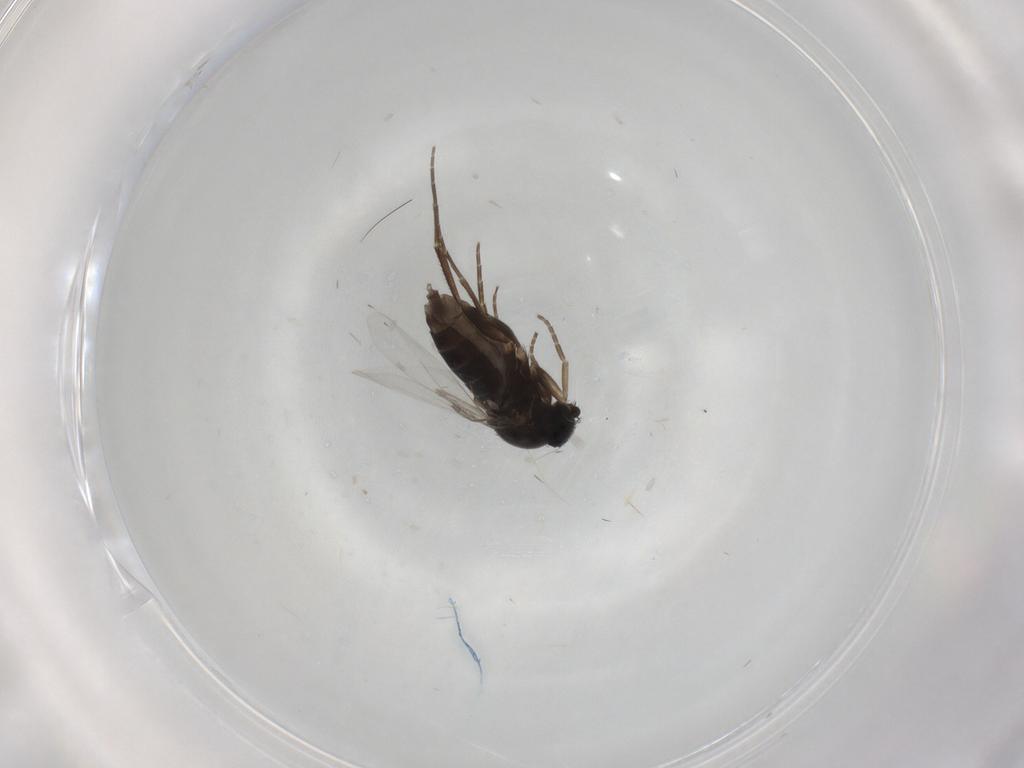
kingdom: Animalia
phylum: Arthropoda
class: Insecta
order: Diptera
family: Phoridae
